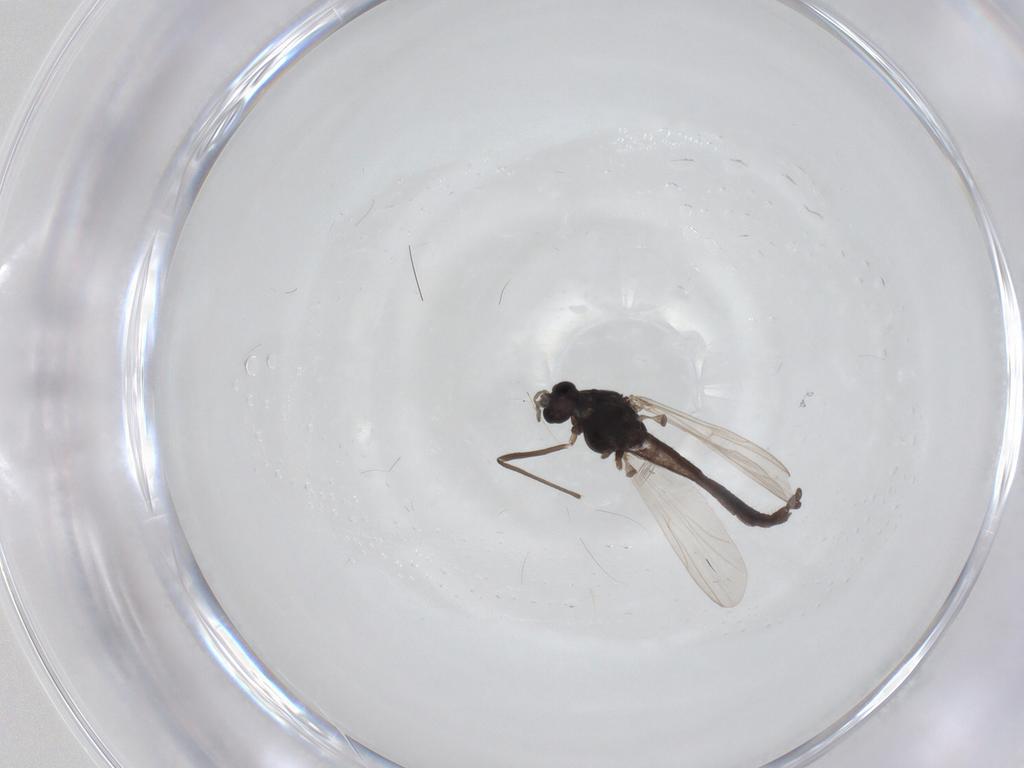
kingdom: Animalia
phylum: Arthropoda
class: Insecta
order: Diptera
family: Chironomidae
